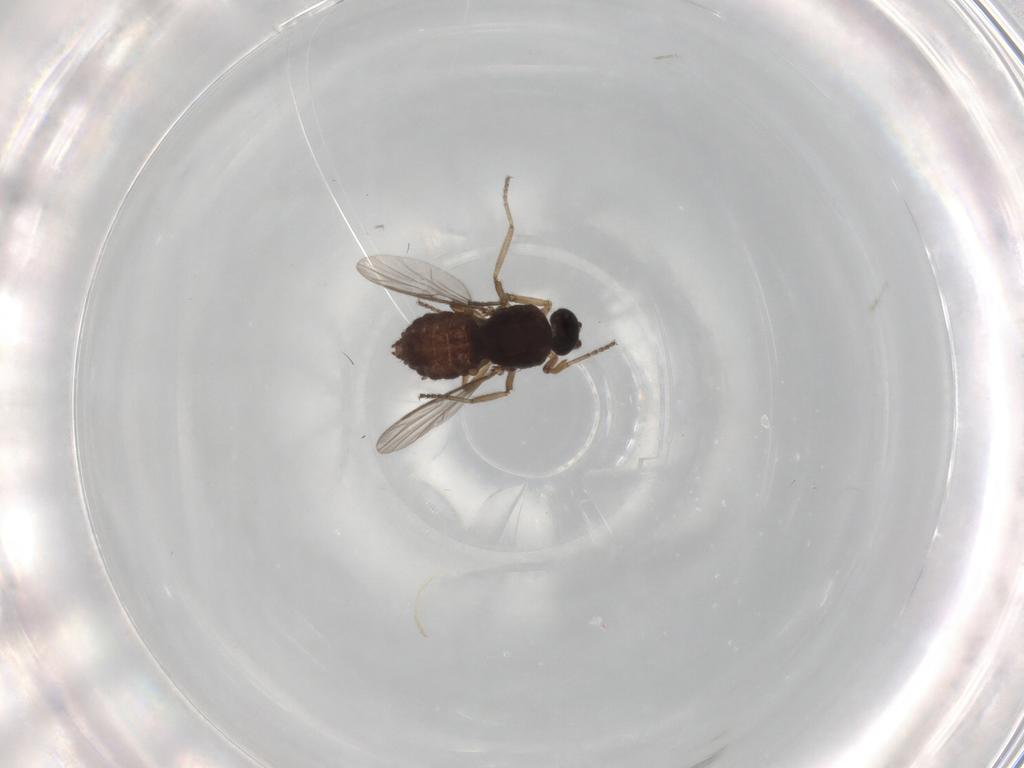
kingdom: Animalia
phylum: Arthropoda
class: Insecta
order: Diptera
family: Ceratopogonidae
